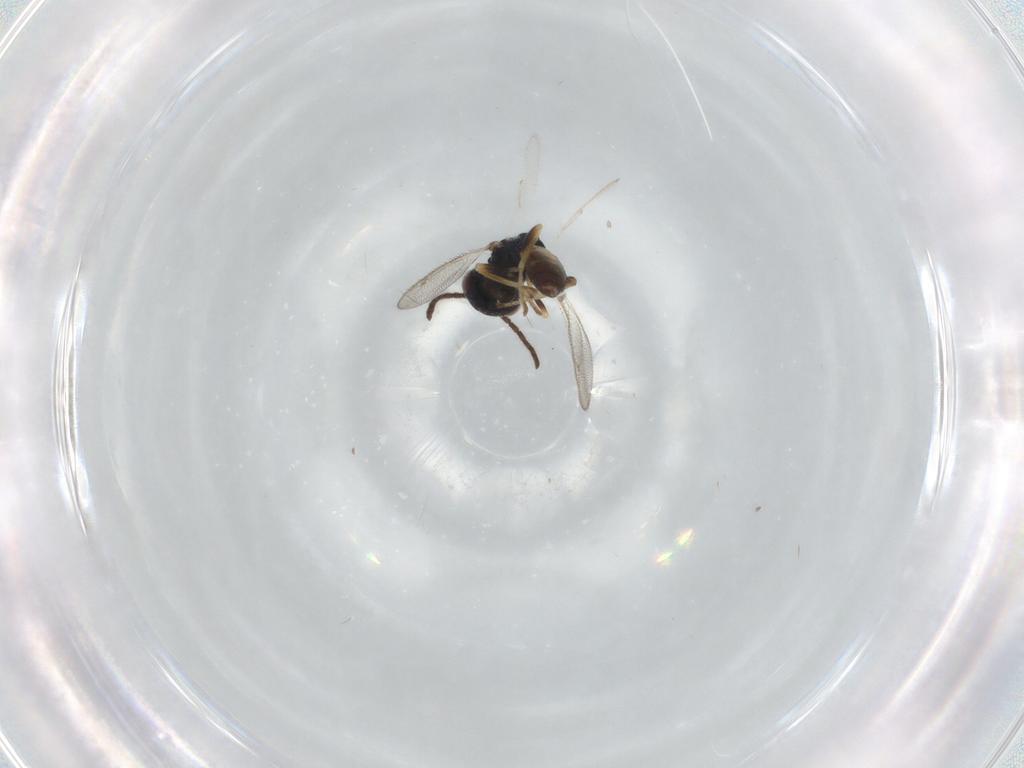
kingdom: Animalia
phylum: Arthropoda
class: Insecta
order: Hymenoptera
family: Pteromalidae
